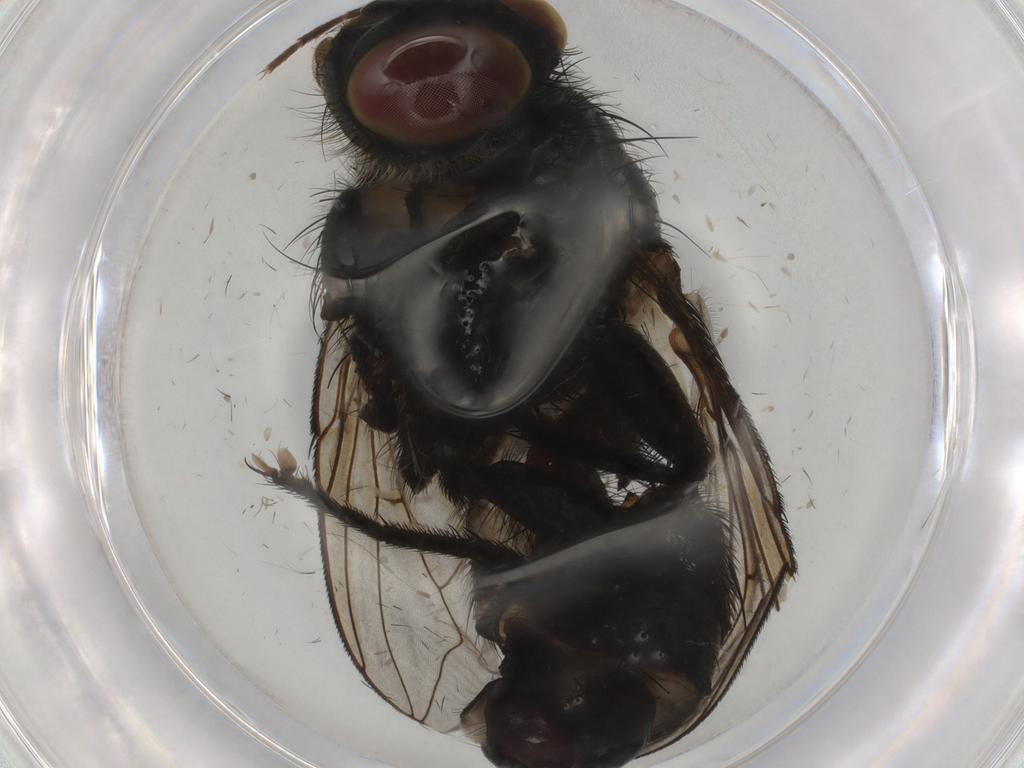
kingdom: Animalia
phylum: Arthropoda
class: Insecta
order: Diptera
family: Sarcophagidae
